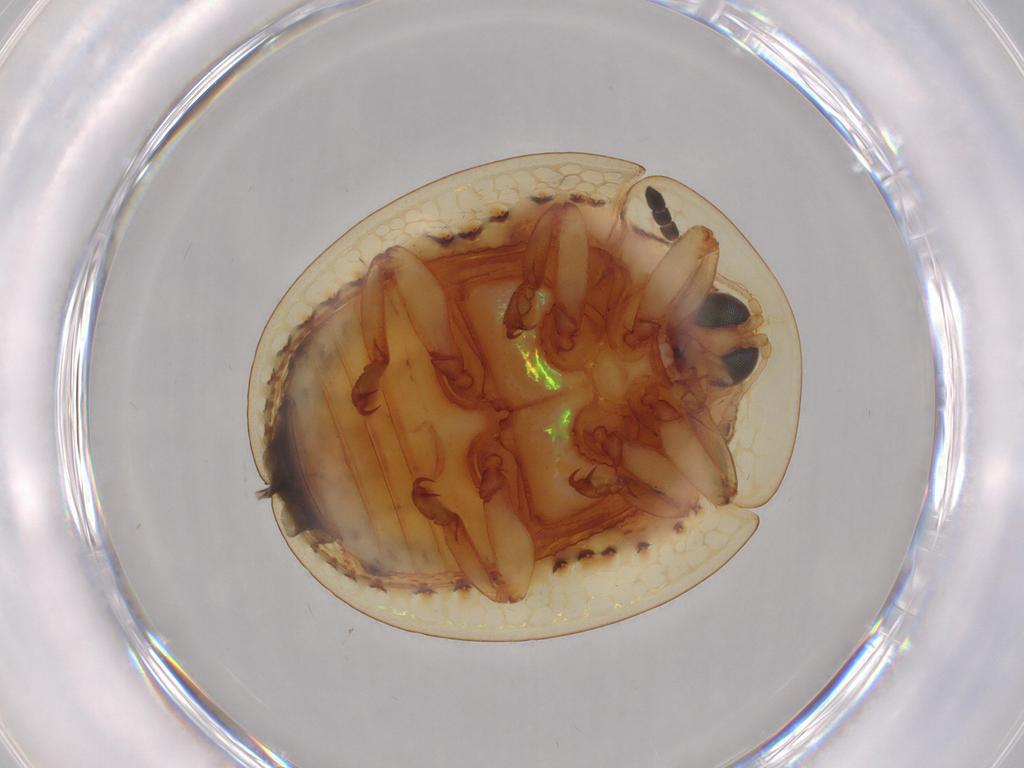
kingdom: Animalia
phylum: Arthropoda
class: Insecta
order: Coleoptera
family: Chrysomelidae
